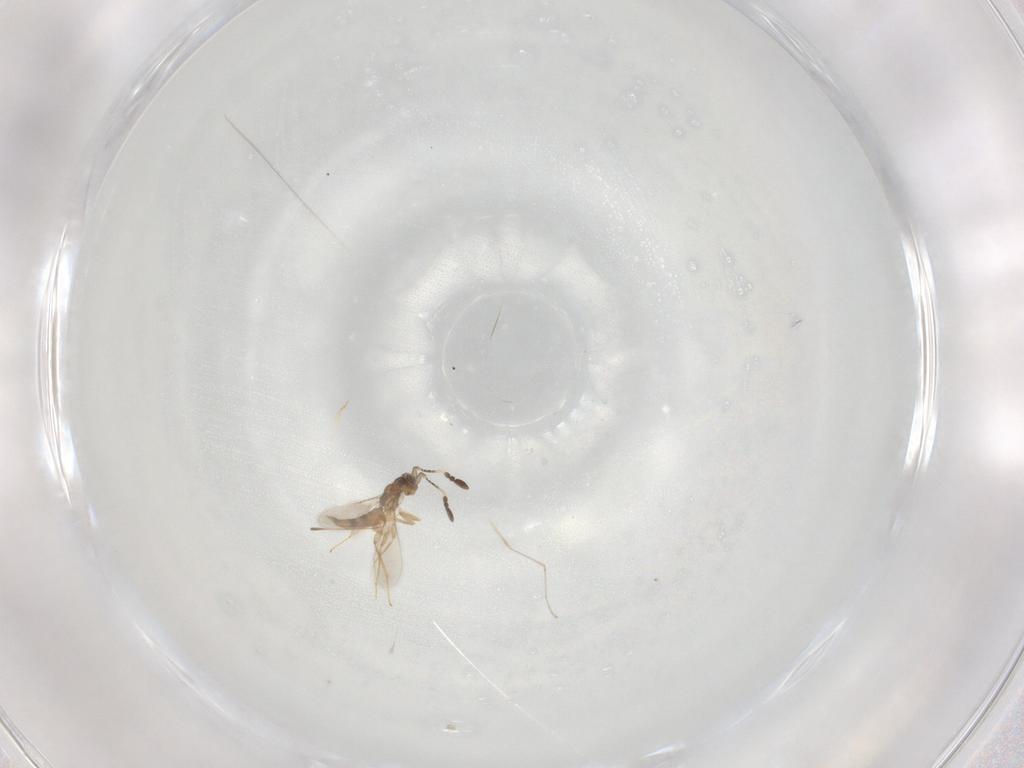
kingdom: Animalia
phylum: Arthropoda
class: Insecta
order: Hymenoptera
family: Mymaridae
